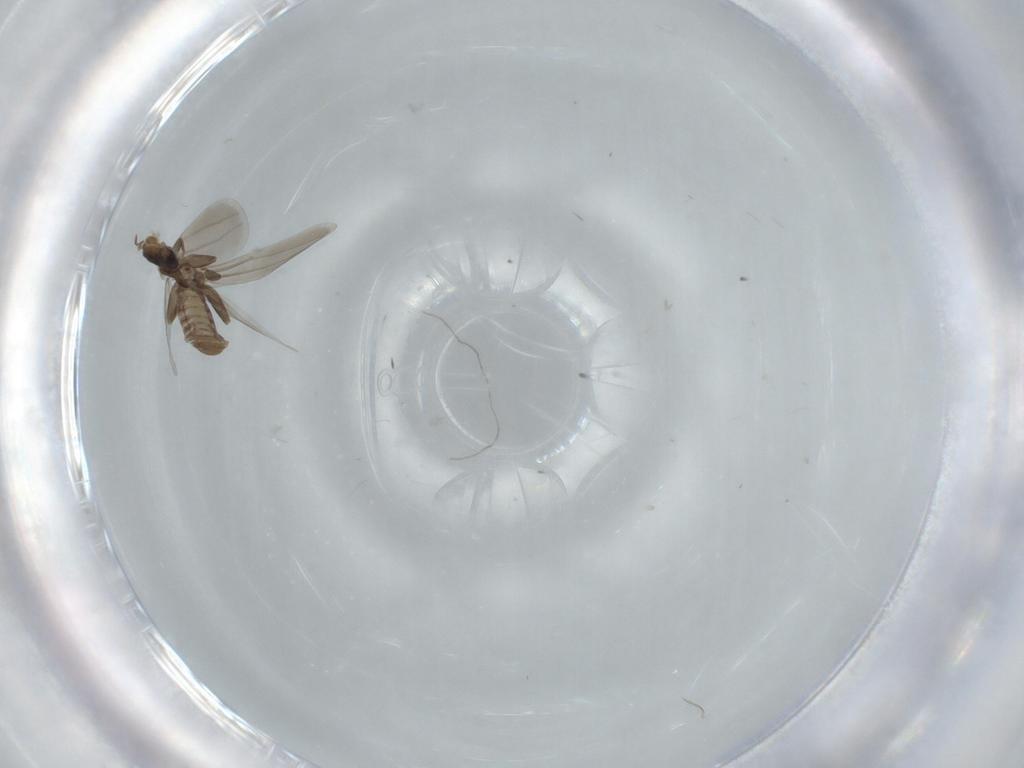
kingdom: Animalia
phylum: Arthropoda
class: Insecta
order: Psocodea
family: Liposcelididae
